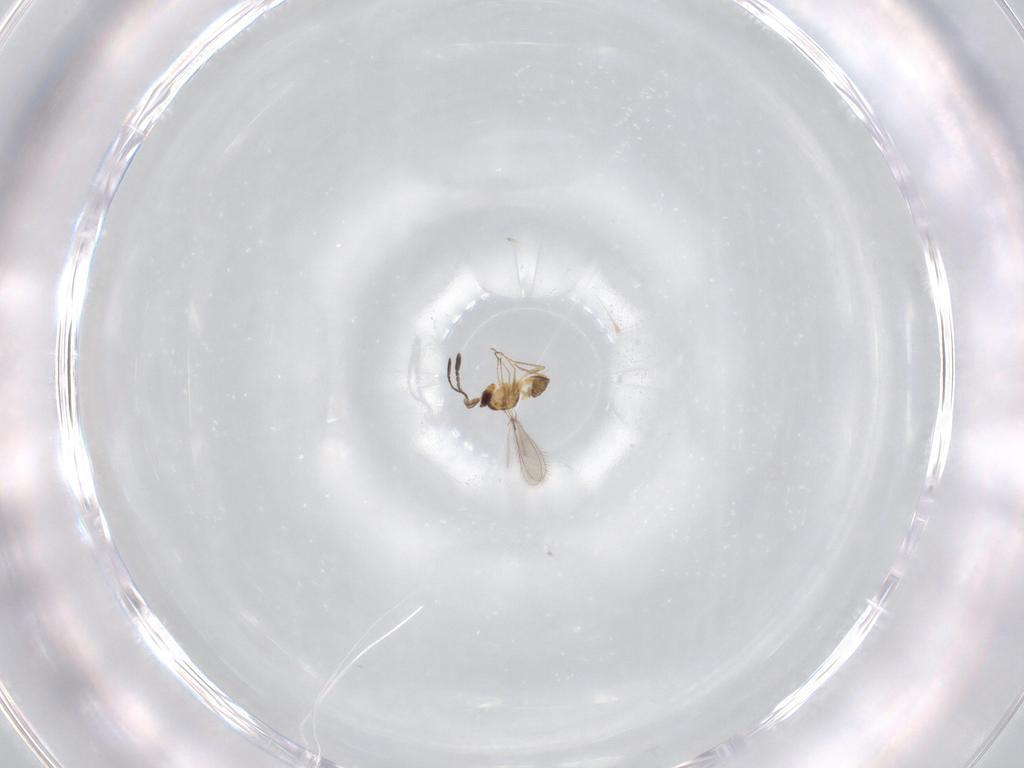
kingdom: Animalia
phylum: Arthropoda
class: Insecta
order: Hymenoptera
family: Mymaridae
